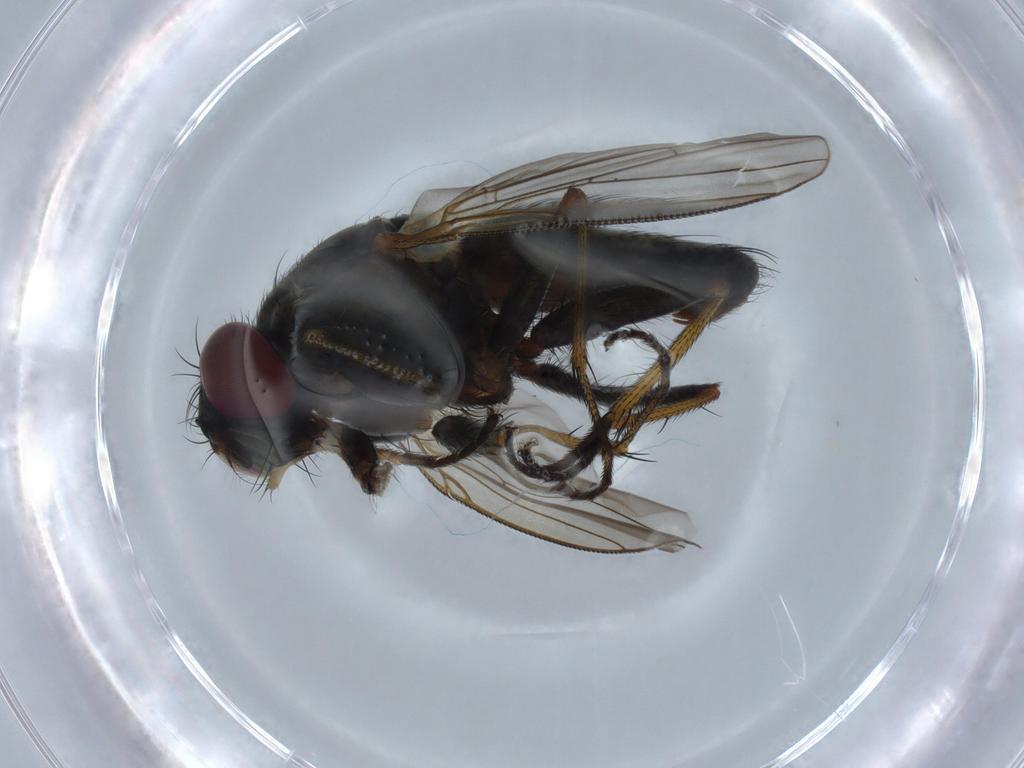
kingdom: Animalia
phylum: Arthropoda
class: Insecta
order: Diptera
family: Muscidae
